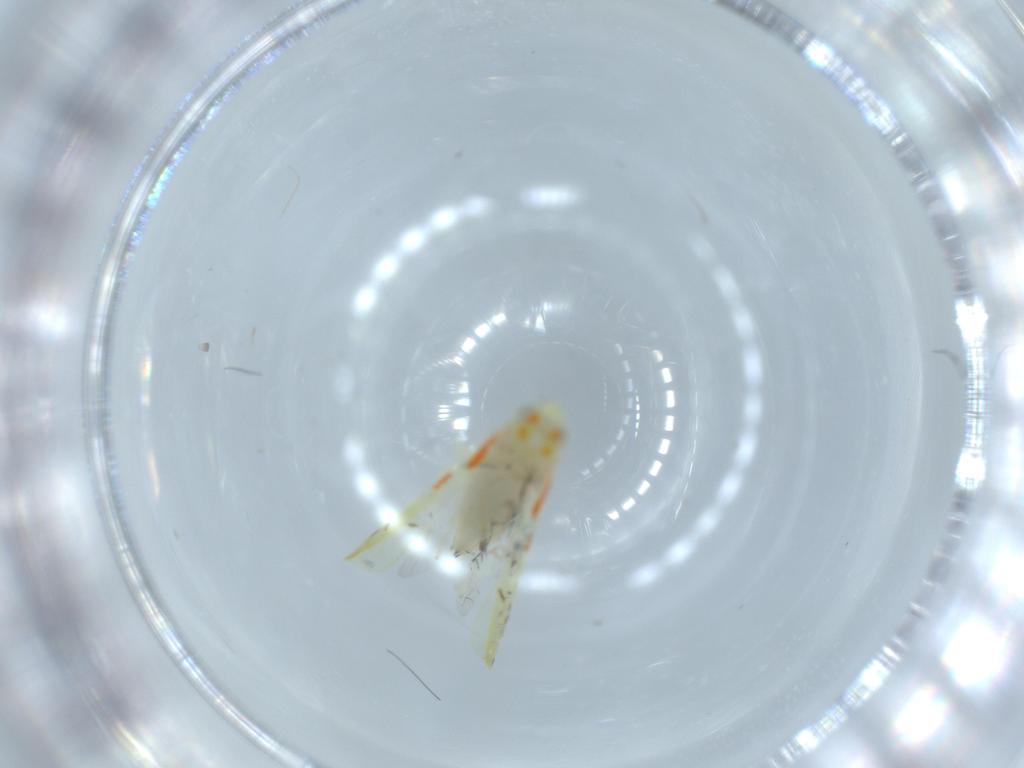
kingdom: Animalia
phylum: Arthropoda
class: Insecta
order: Hemiptera
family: Cicadellidae
